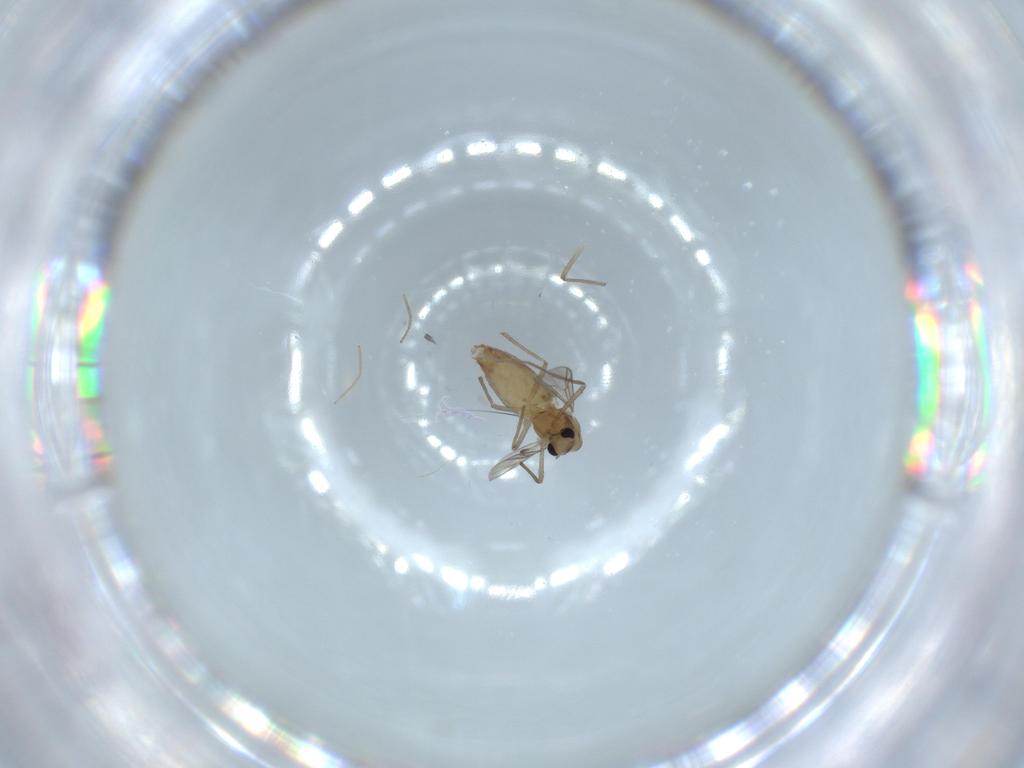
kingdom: Animalia
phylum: Arthropoda
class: Insecta
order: Diptera
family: Chironomidae
